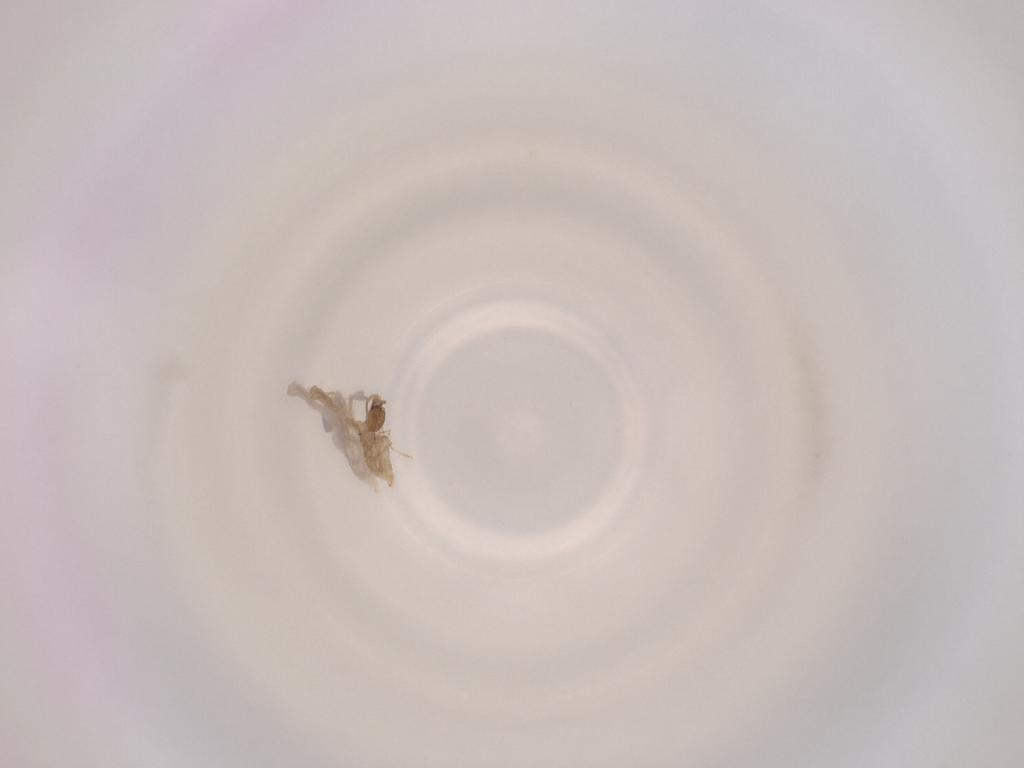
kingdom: Animalia
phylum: Arthropoda
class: Insecta
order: Diptera
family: Cecidomyiidae
